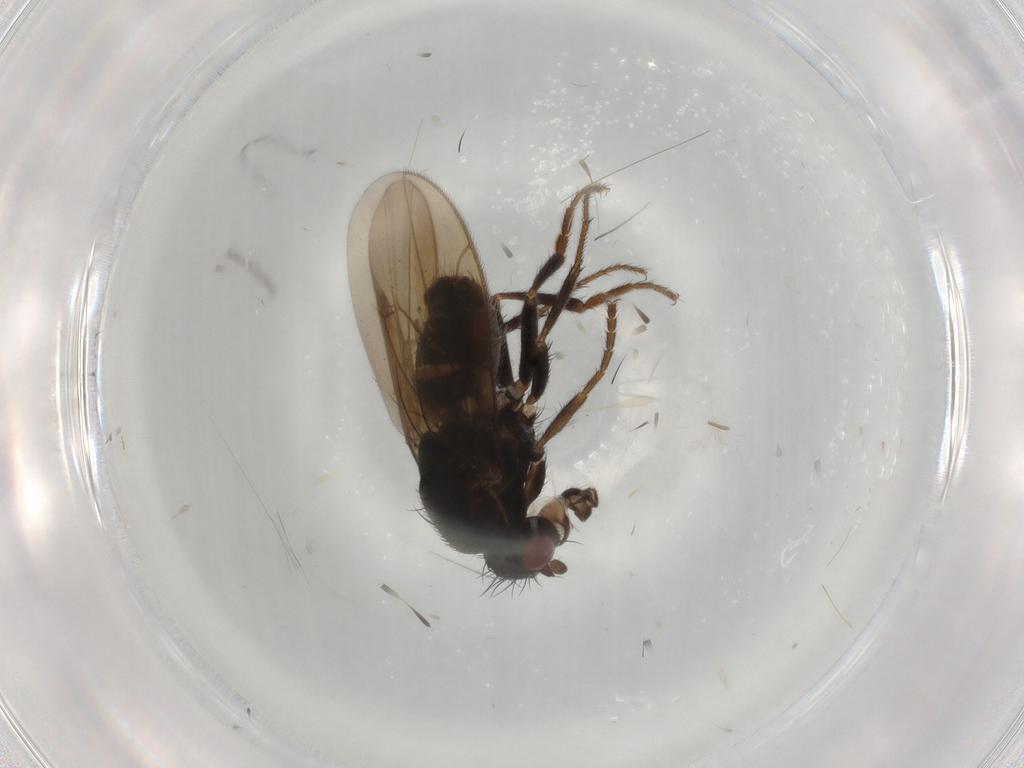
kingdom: Animalia
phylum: Arthropoda
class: Insecta
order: Diptera
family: Sphaeroceridae
